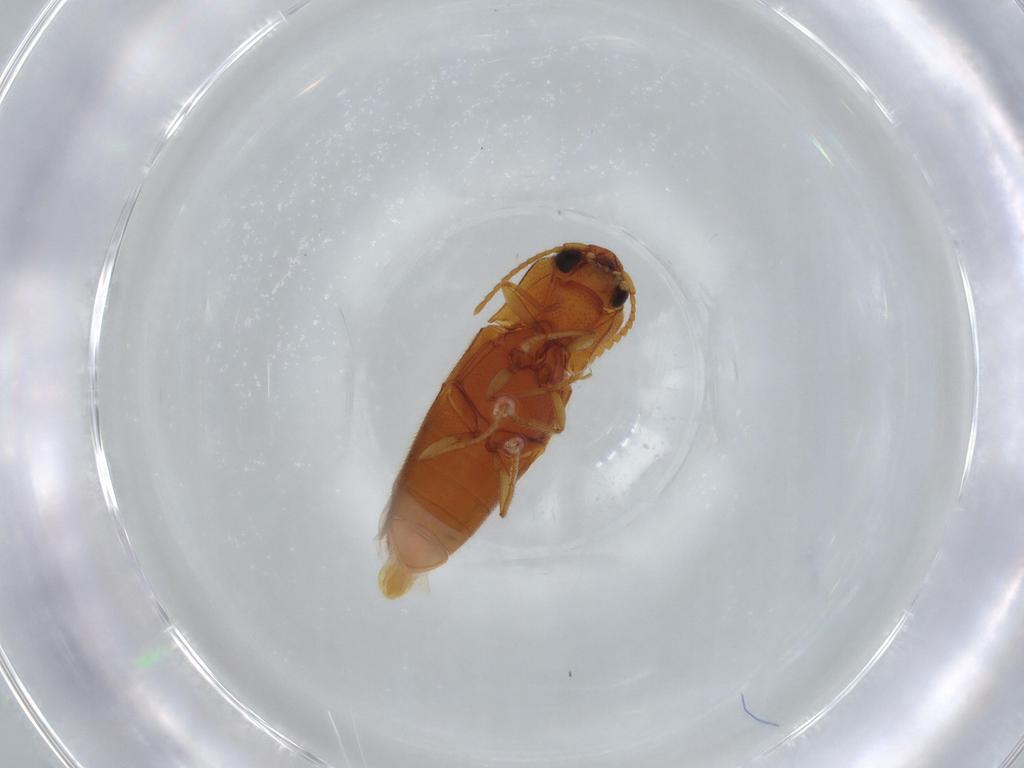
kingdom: Animalia
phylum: Arthropoda
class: Insecta
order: Coleoptera
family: Elateridae
